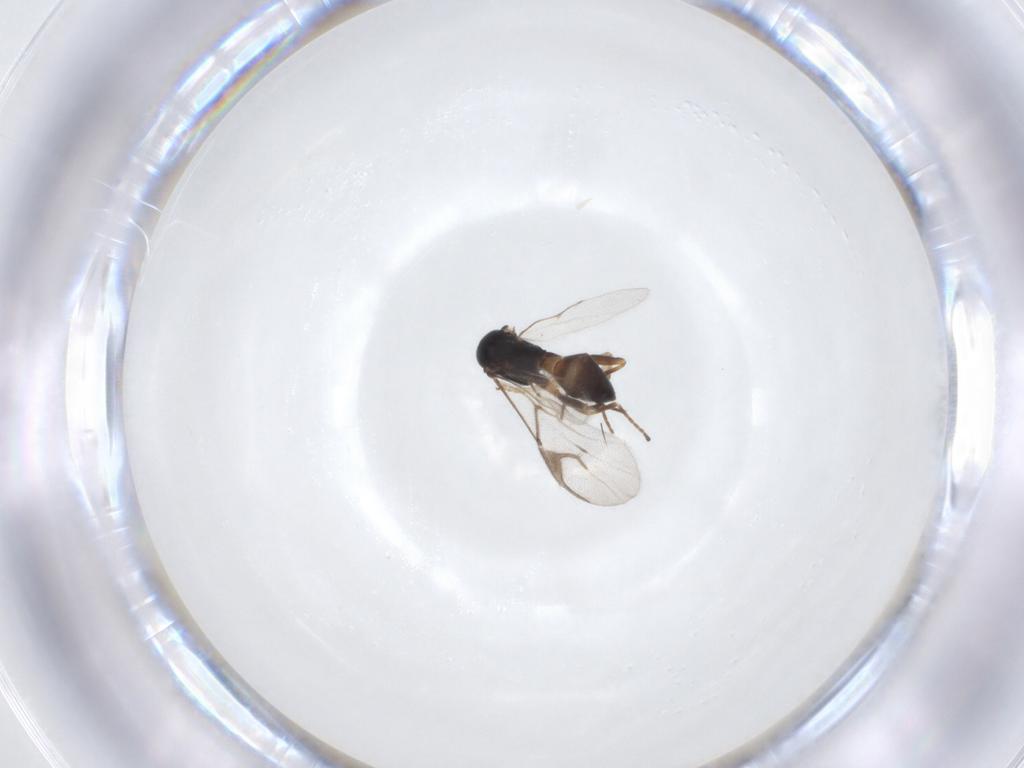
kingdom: Animalia
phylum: Arthropoda
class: Insecta
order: Hymenoptera
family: Braconidae
